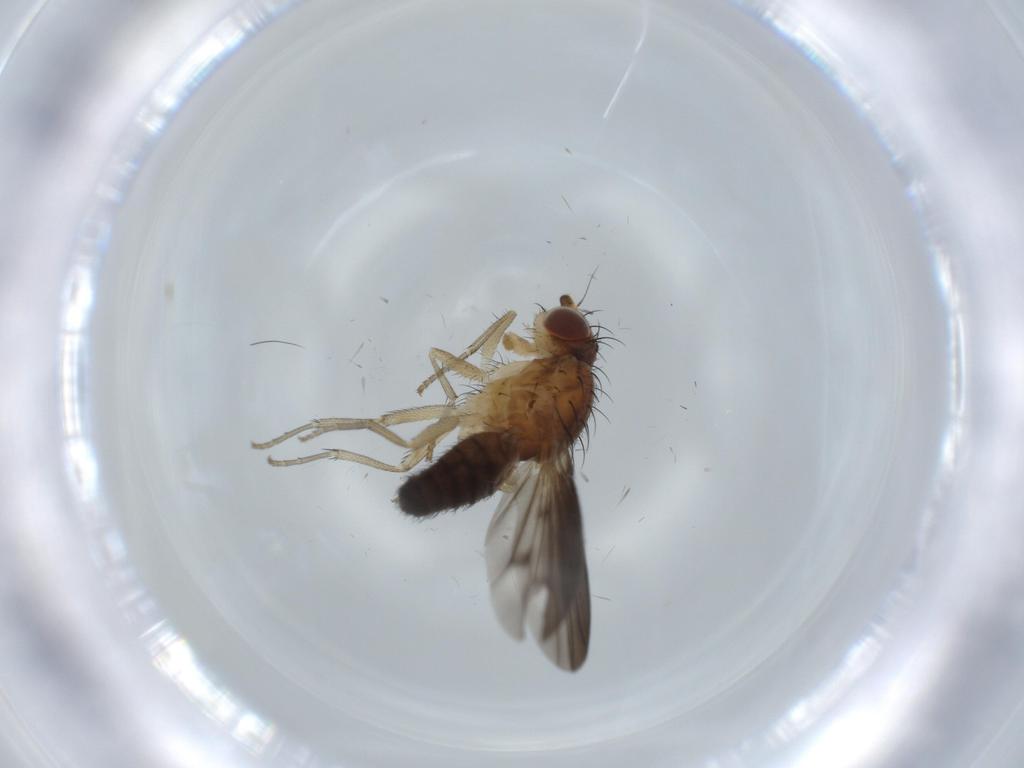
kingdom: Animalia
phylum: Arthropoda
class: Insecta
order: Diptera
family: Heleomyzidae
